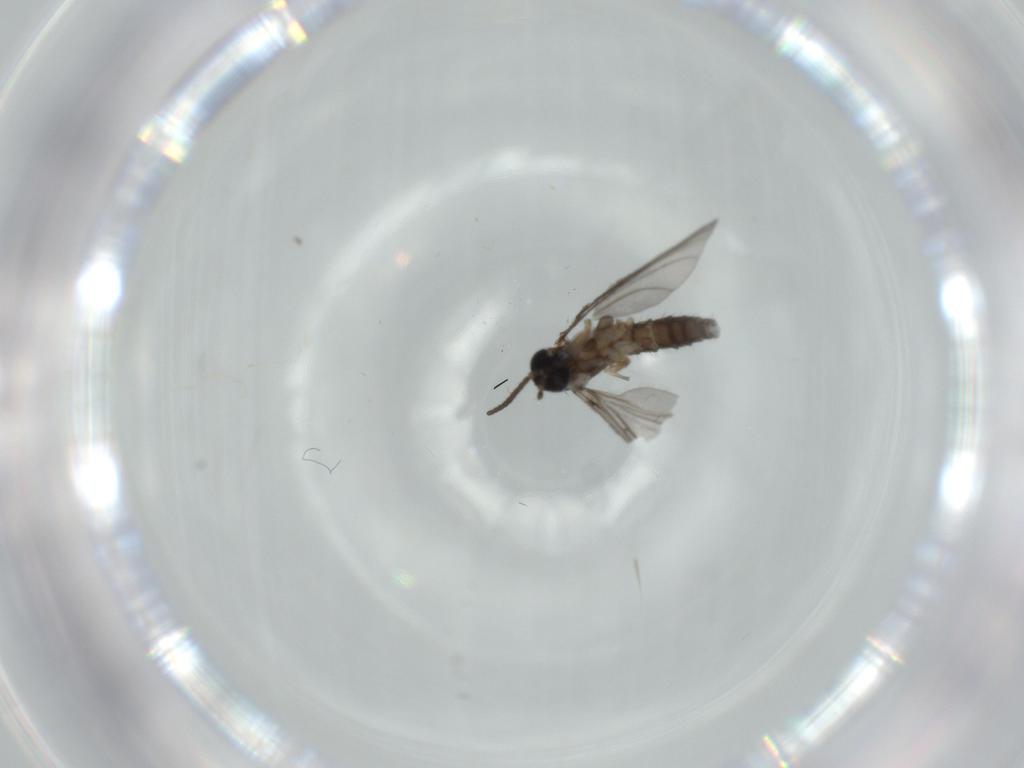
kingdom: Animalia
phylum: Arthropoda
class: Insecta
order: Diptera
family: Sciaridae
